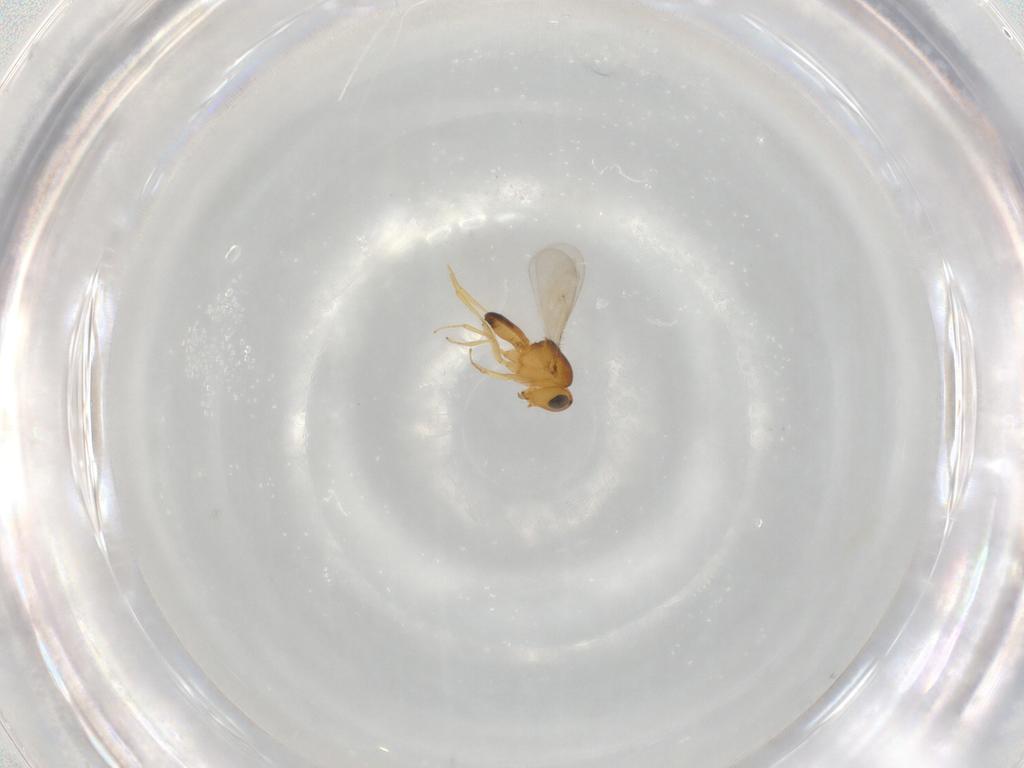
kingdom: Animalia
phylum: Arthropoda
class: Insecta
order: Hymenoptera
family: Scelionidae
